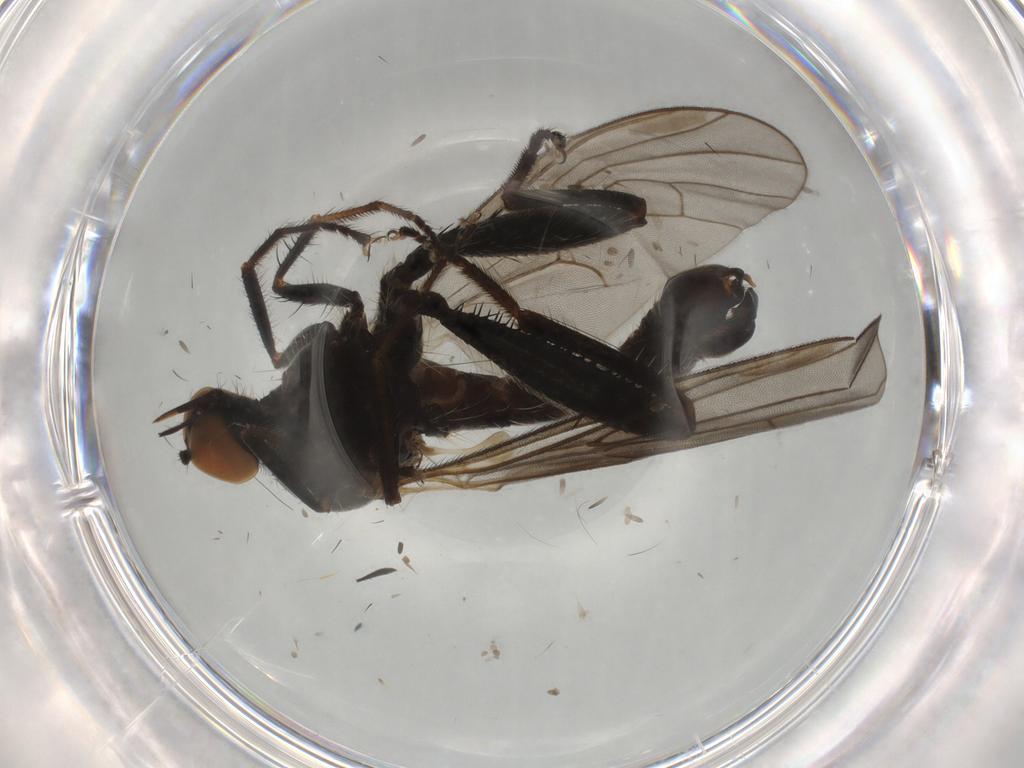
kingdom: Animalia
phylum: Arthropoda
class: Insecta
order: Diptera
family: Hybotidae
